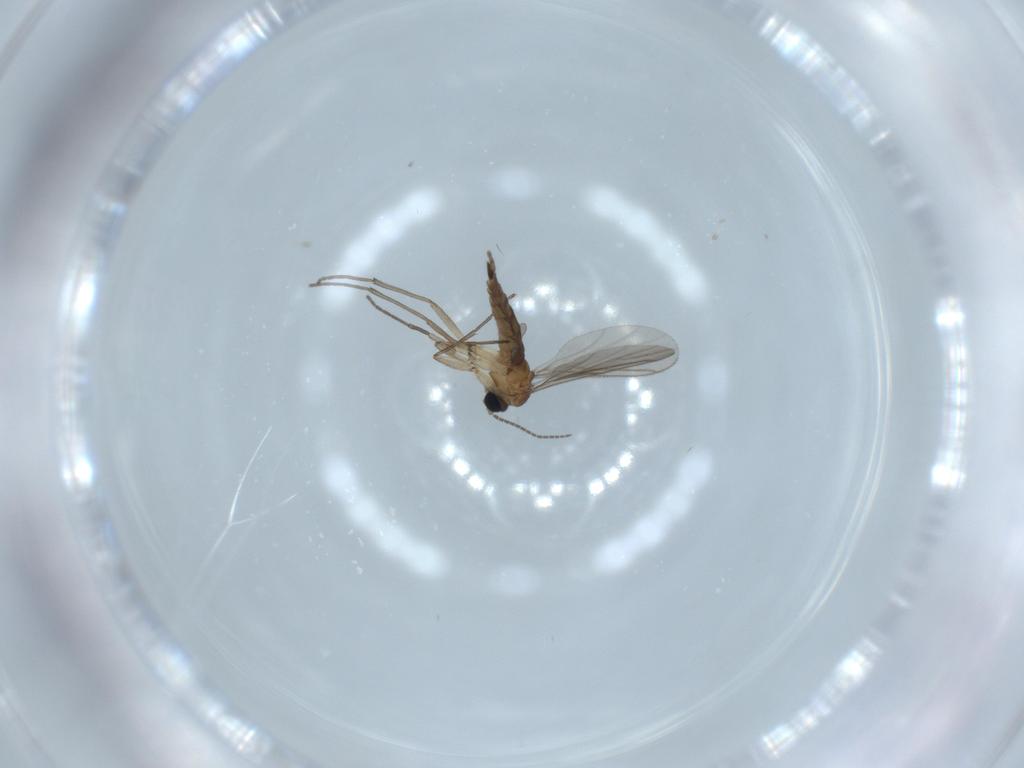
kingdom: Animalia
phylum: Arthropoda
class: Insecta
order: Diptera
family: Sciaridae
